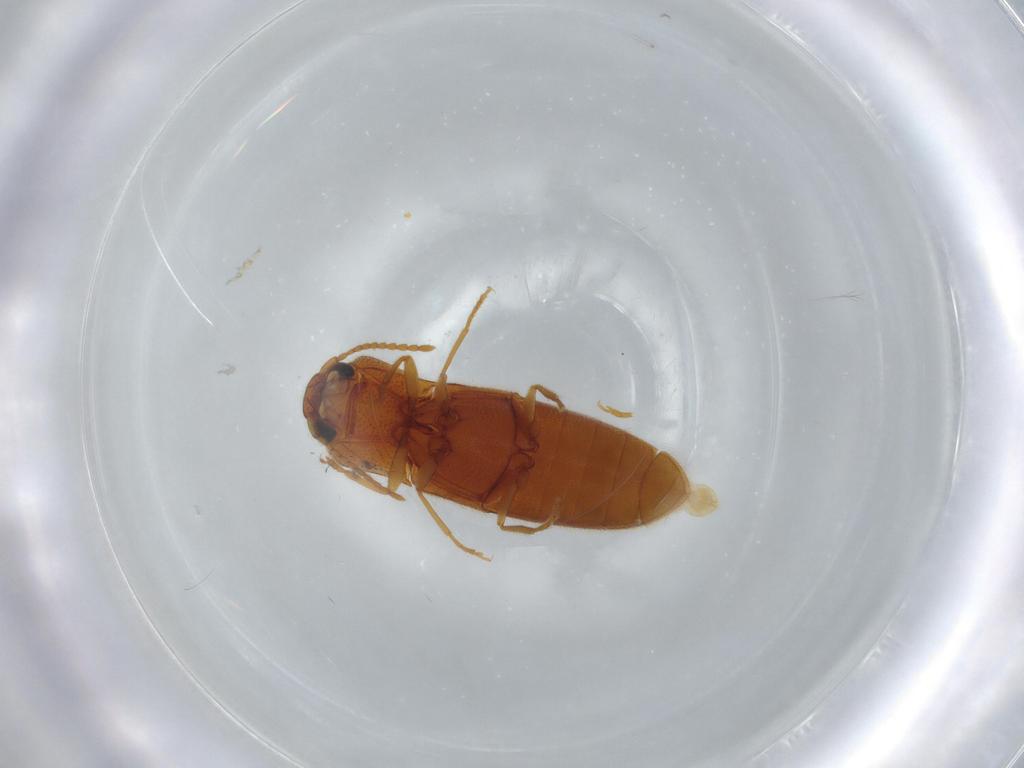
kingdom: Animalia
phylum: Arthropoda
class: Insecta
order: Coleoptera
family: Elateridae
